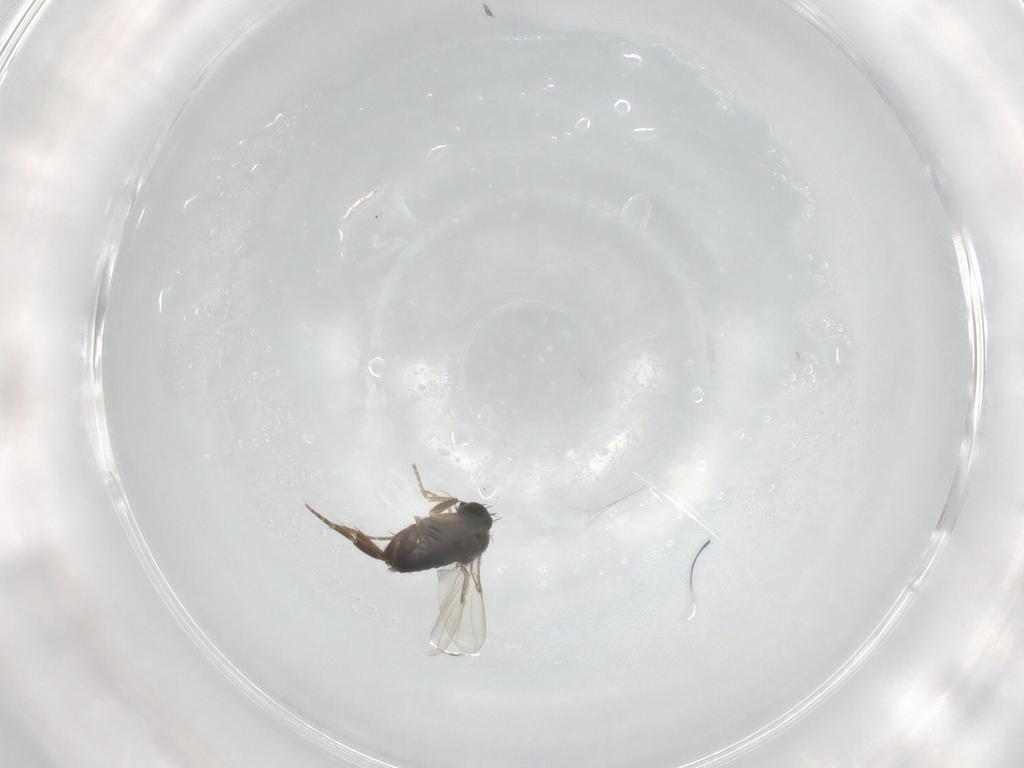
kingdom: Animalia
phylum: Arthropoda
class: Insecta
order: Diptera
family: Phoridae
